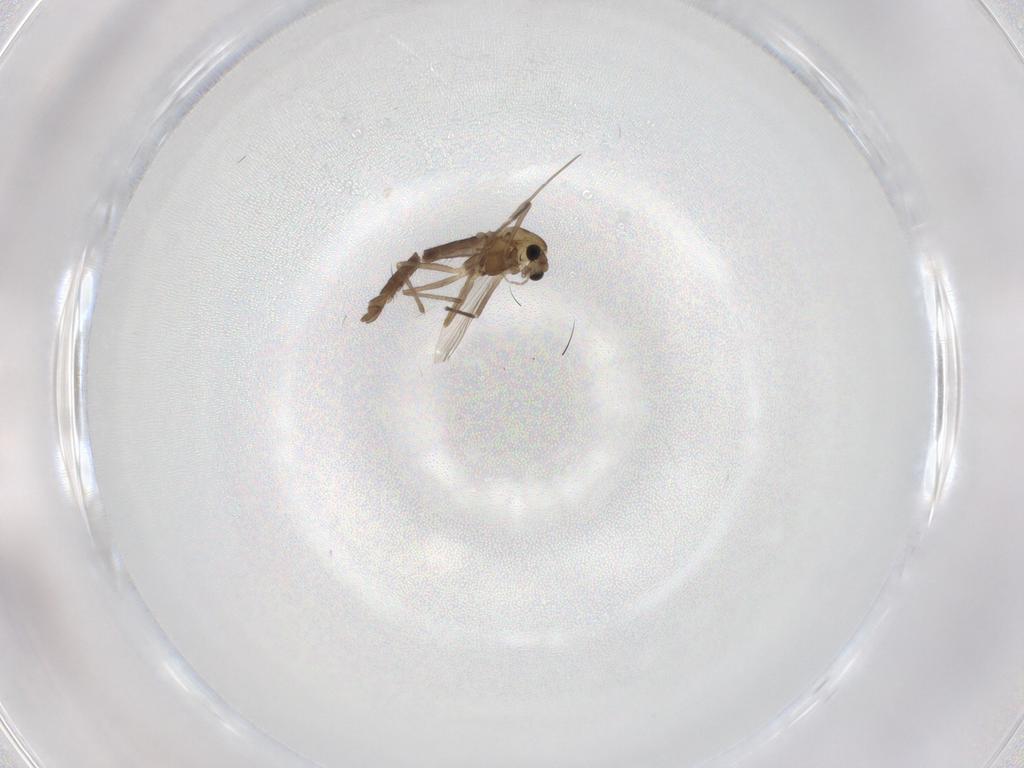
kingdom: Animalia
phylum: Arthropoda
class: Insecta
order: Diptera
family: Chironomidae
